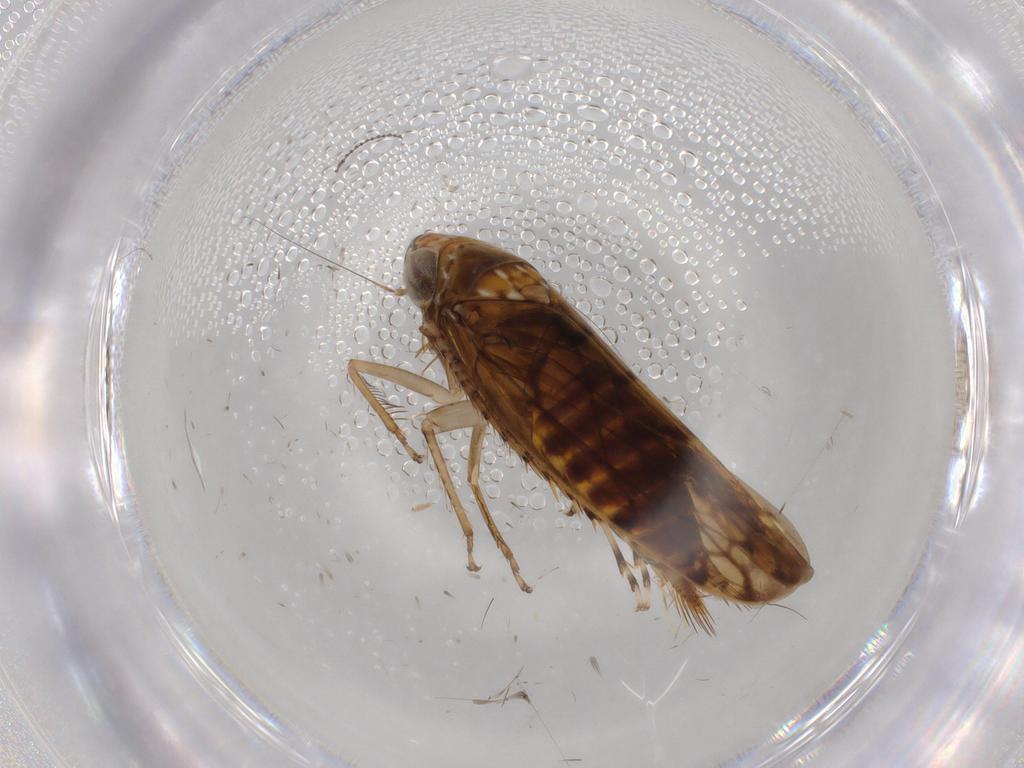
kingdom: Animalia
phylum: Arthropoda
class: Insecta
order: Hemiptera
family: Cicadellidae
